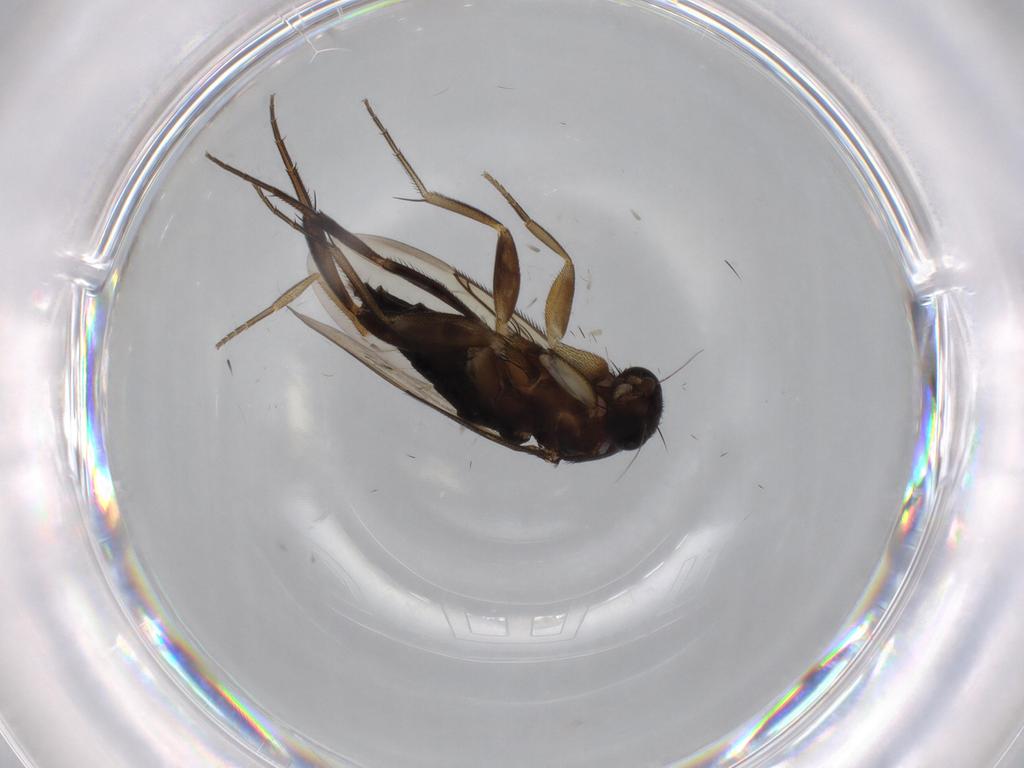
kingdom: Animalia
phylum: Arthropoda
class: Insecta
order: Diptera
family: Phoridae
